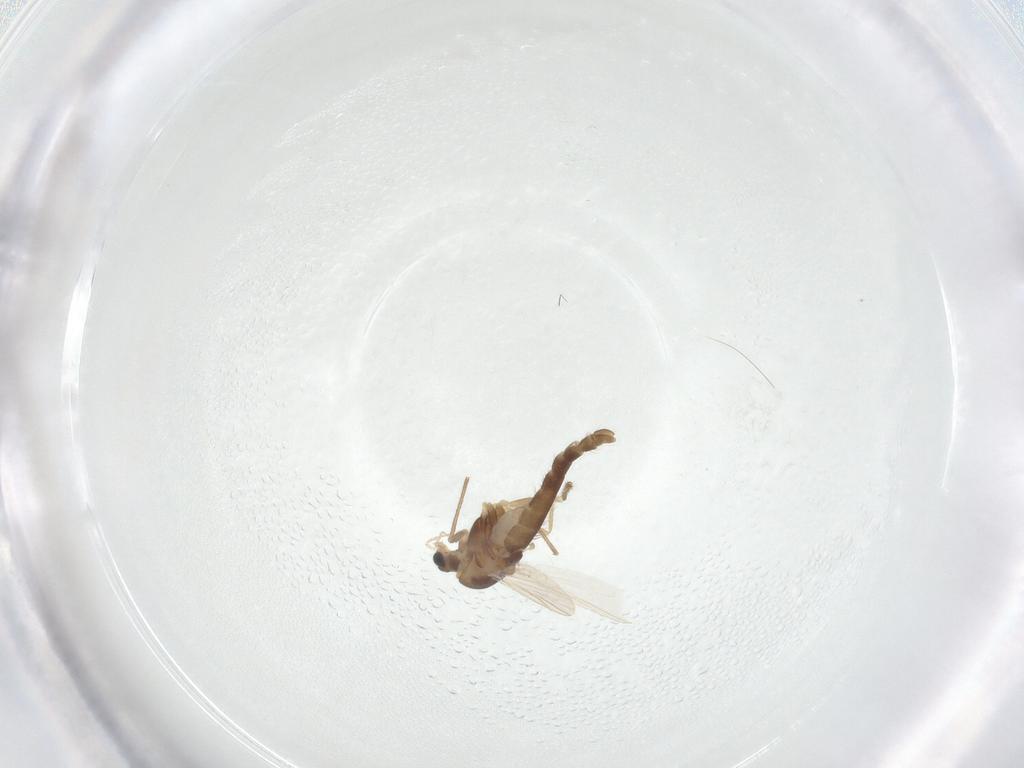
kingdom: Animalia
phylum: Arthropoda
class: Insecta
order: Diptera
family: Chironomidae
